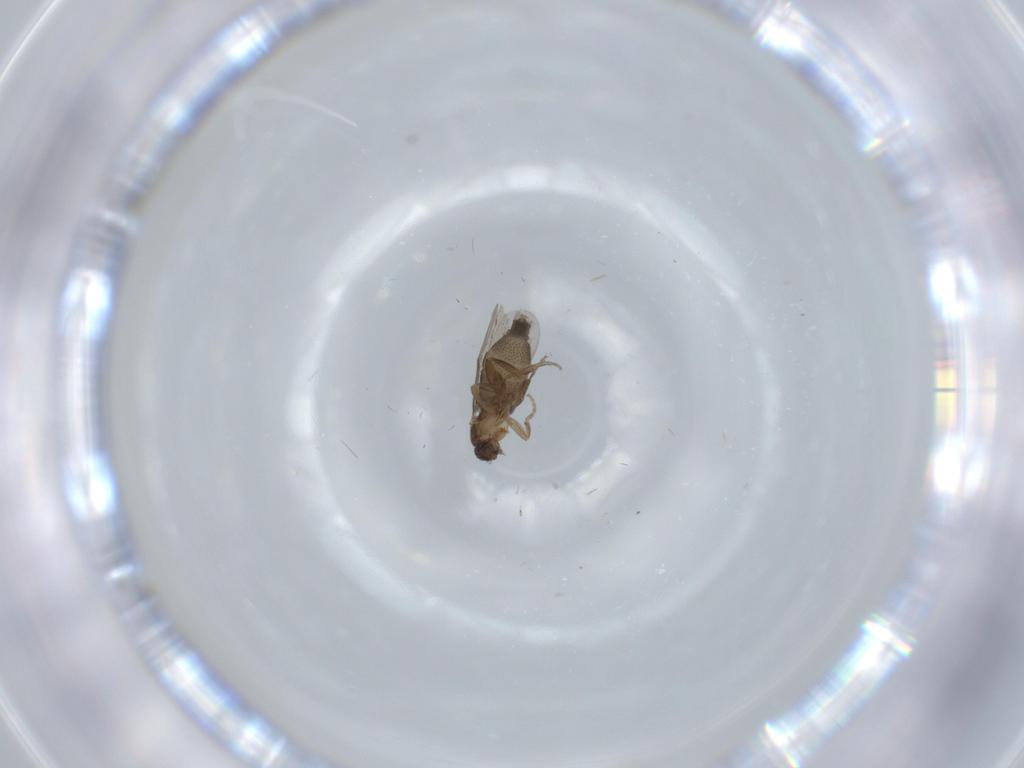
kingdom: Animalia
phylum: Arthropoda
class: Insecta
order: Diptera
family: Phoridae
